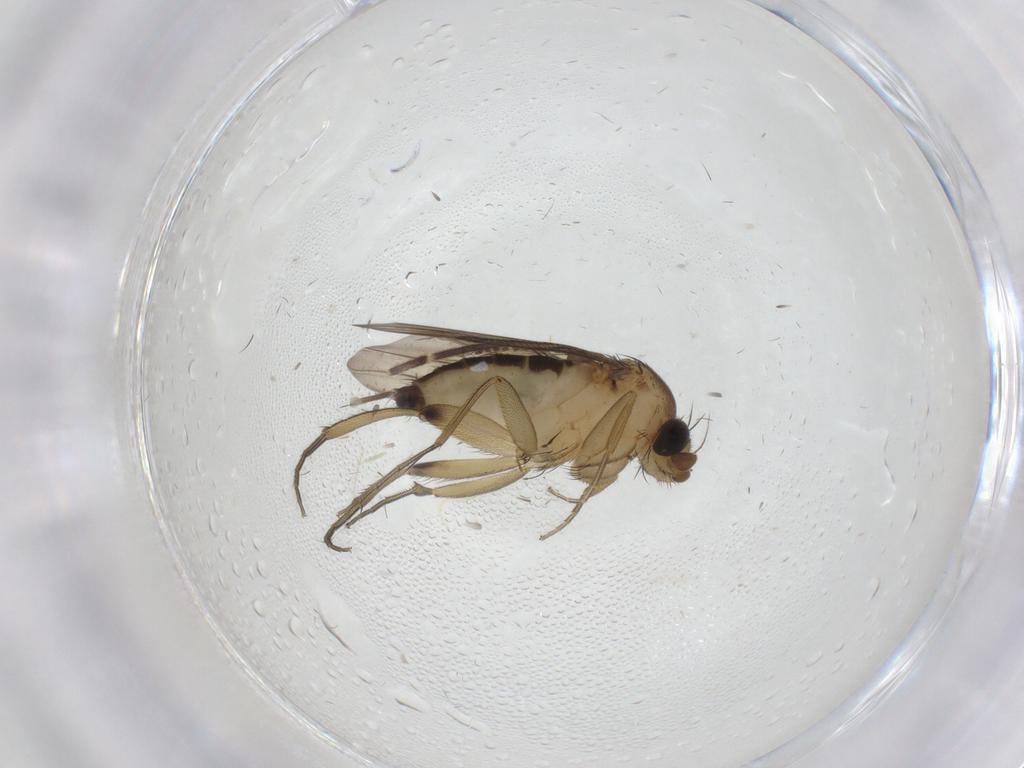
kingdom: Animalia
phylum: Arthropoda
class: Insecta
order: Diptera
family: Phoridae
